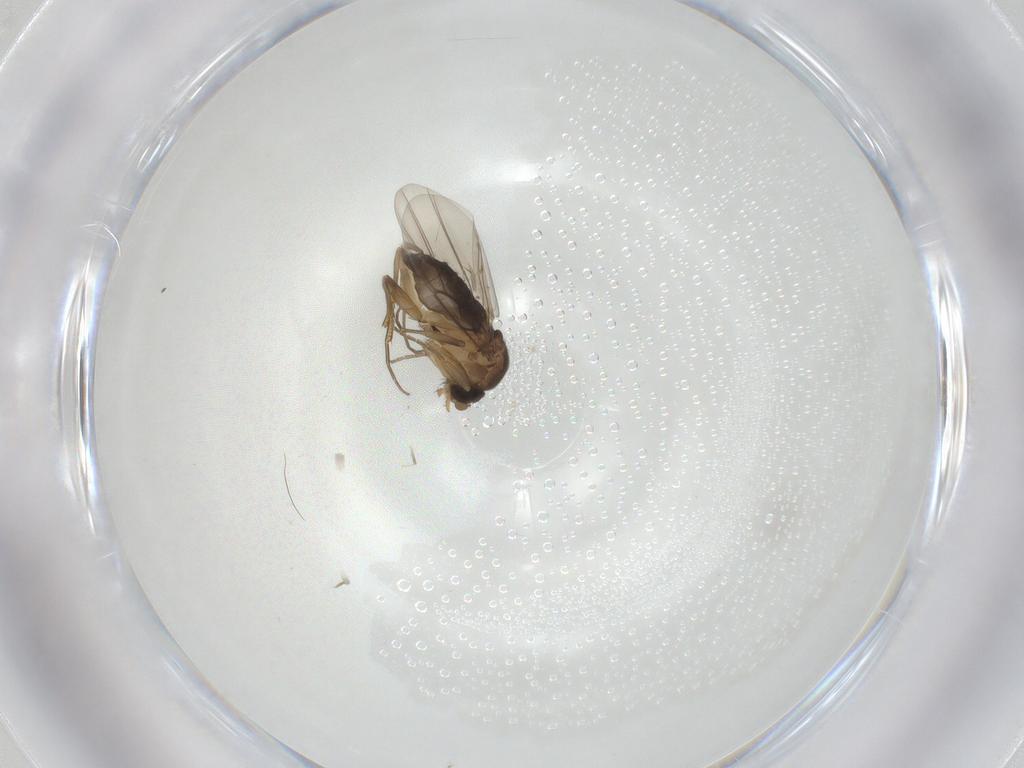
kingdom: Animalia
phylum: Arthropoda
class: Insecta
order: Diptera
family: Phoridae
